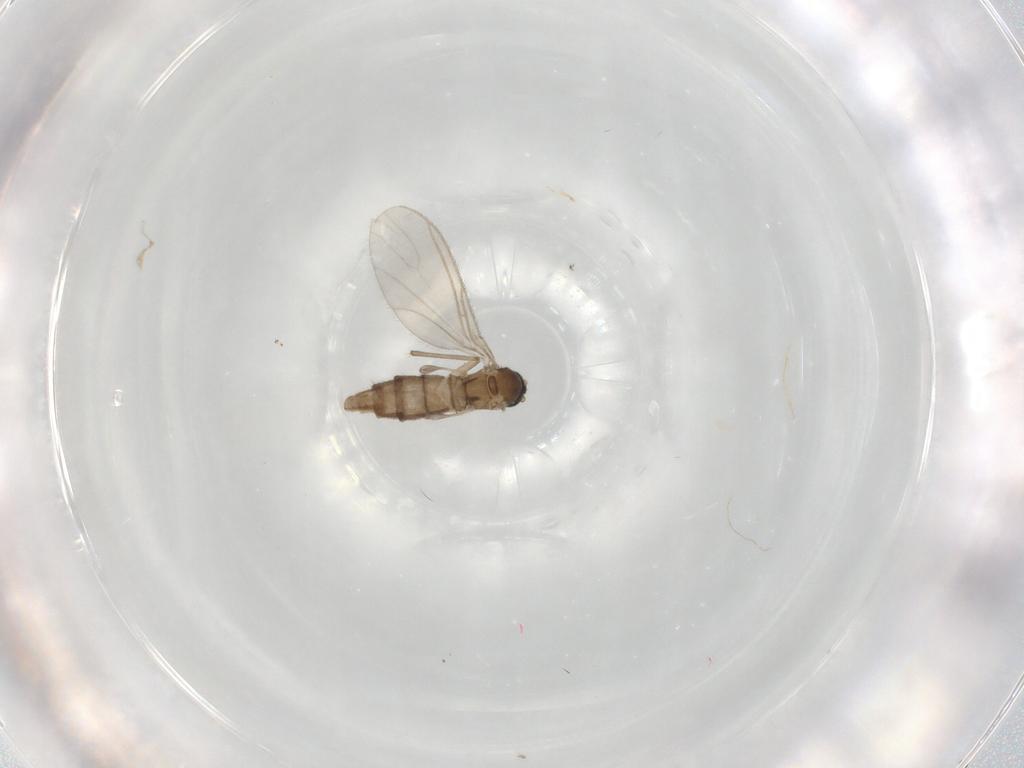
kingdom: Animalia
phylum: Arthropoda
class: Insecta
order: Diptera
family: Sciaridae
